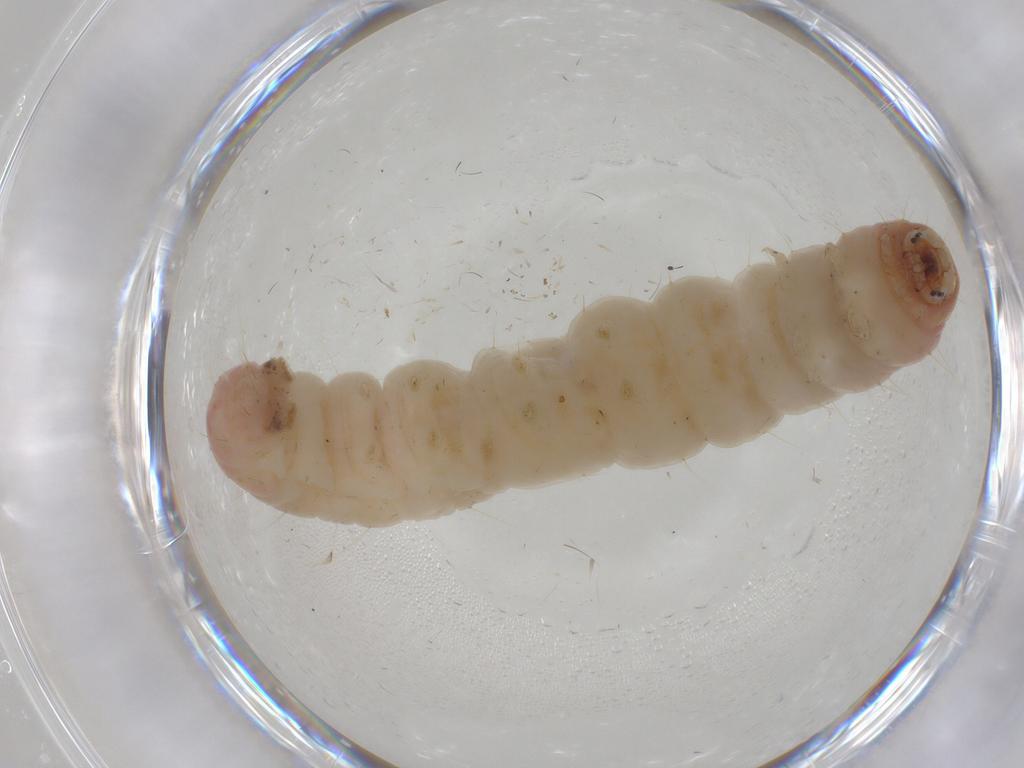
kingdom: Animalia
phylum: Arthropoda
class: Insecta
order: Lepidoptera
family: Pyralidae
